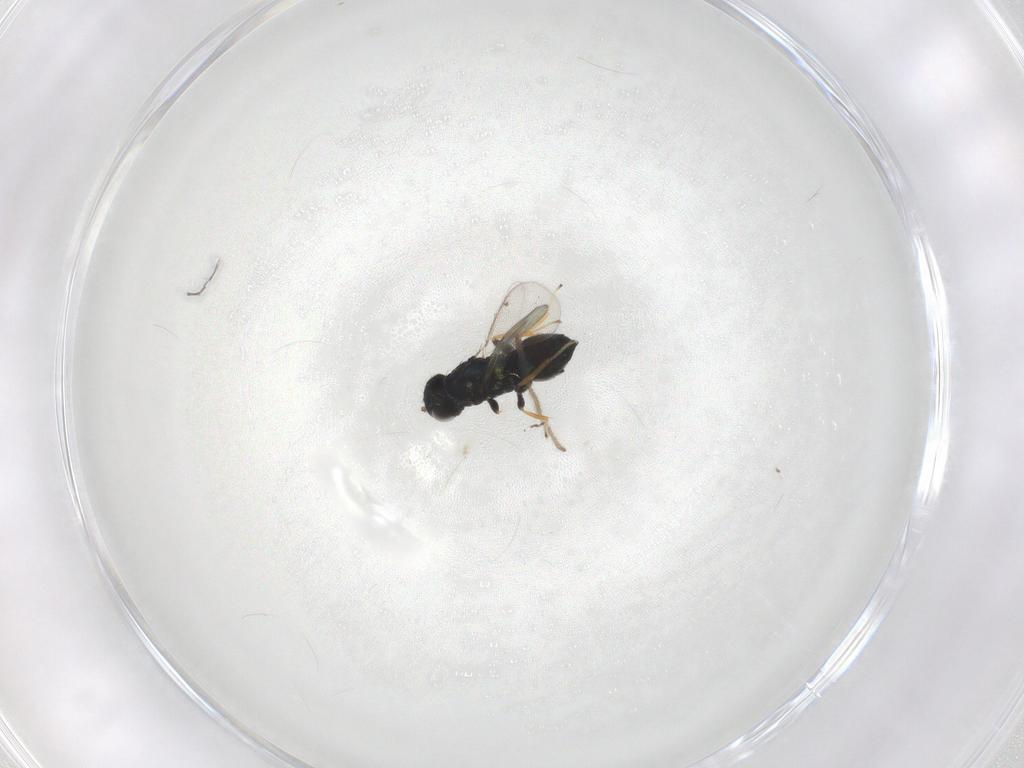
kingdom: Animalia
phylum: Arthropoda
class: Insecta
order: Hymenoptera
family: Eulophidae
